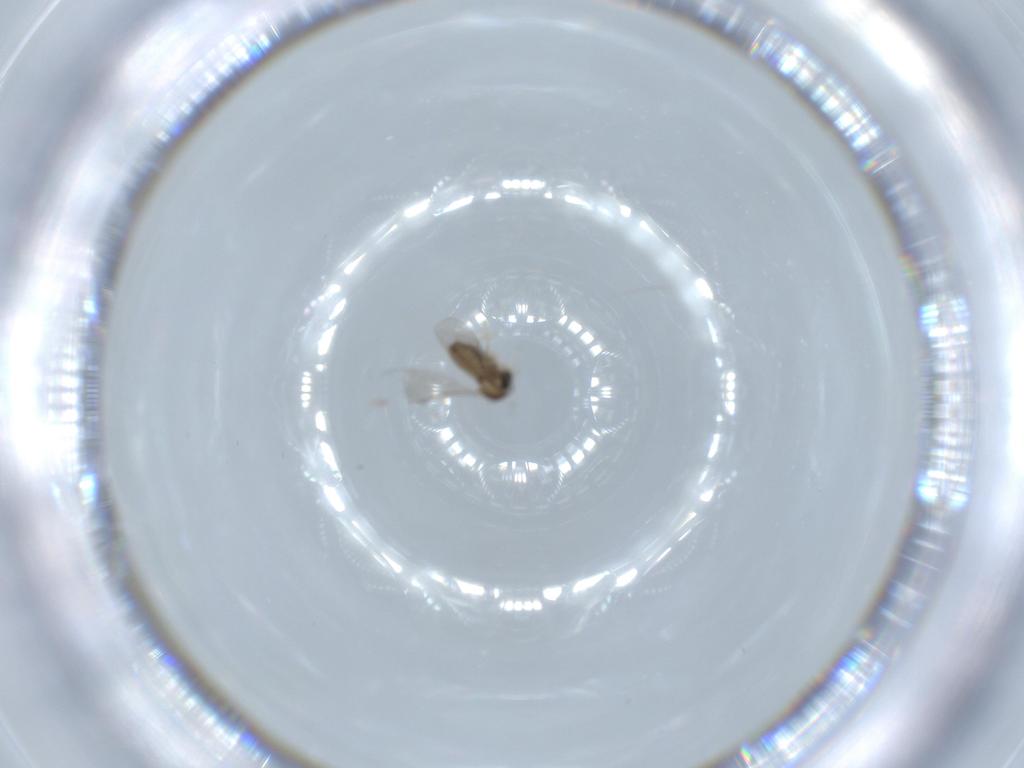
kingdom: Animalia
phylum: Arthropoda
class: Insecta
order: Diptera
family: Cecidomyiidae
